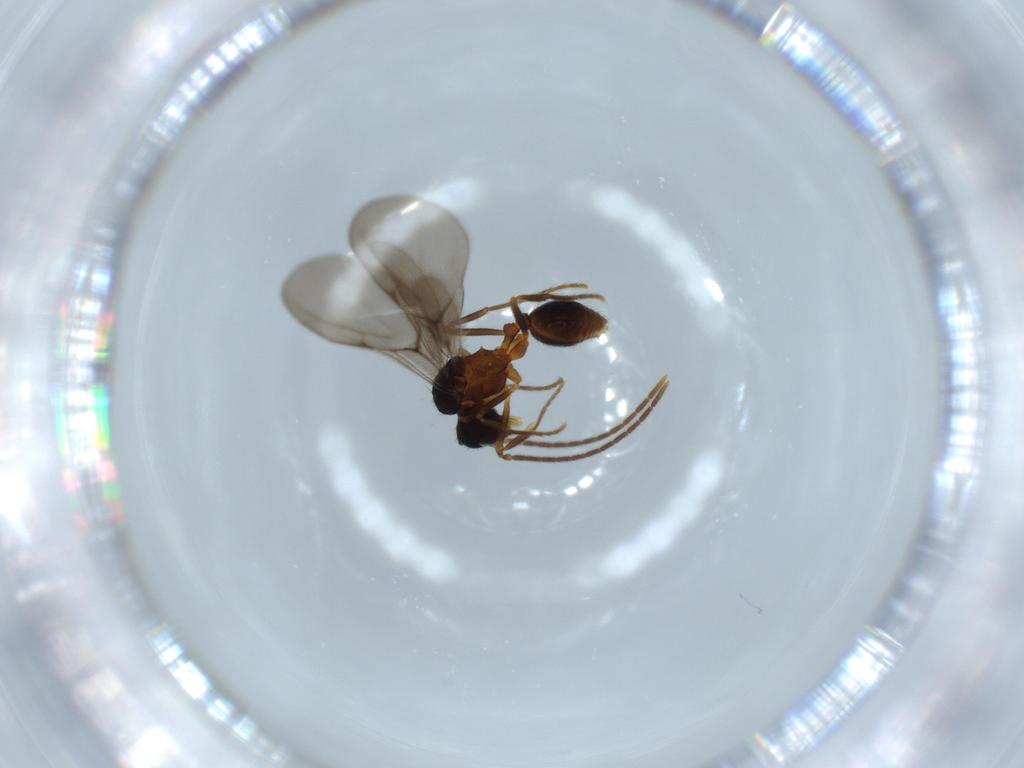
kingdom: Animalia
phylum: Arthropoda
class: Insecta
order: Hymenoptera
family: Formicidae
